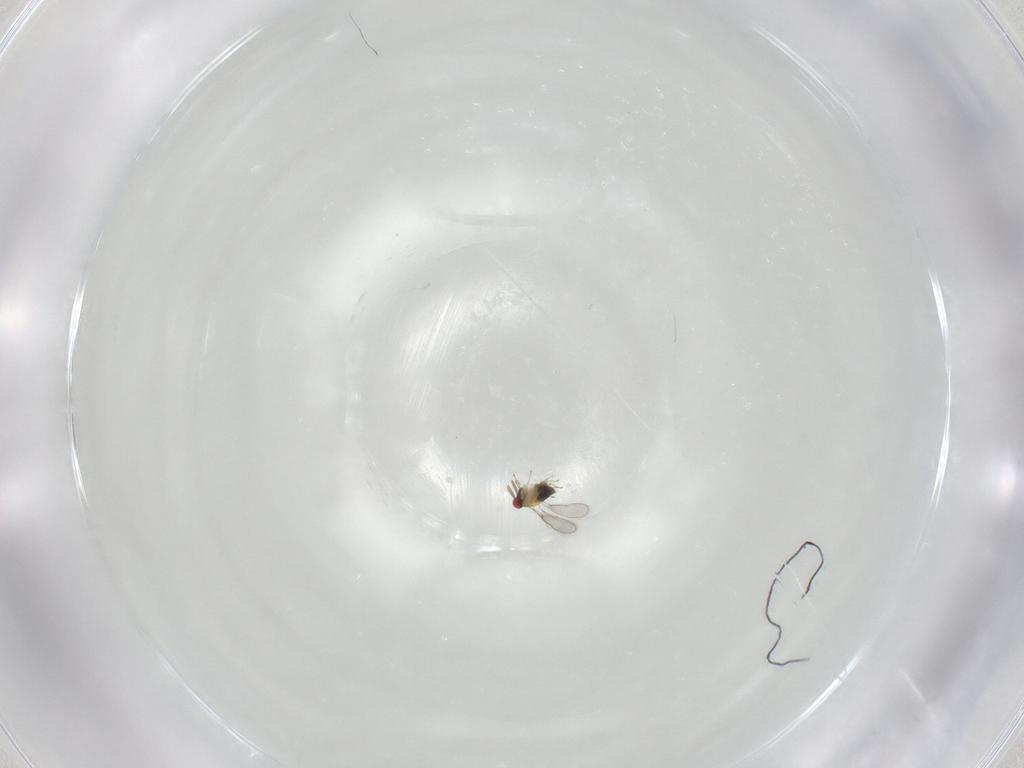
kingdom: Animalia
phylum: Arthropoda
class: Insecta
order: Hymenoptera
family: Aphelinidae
